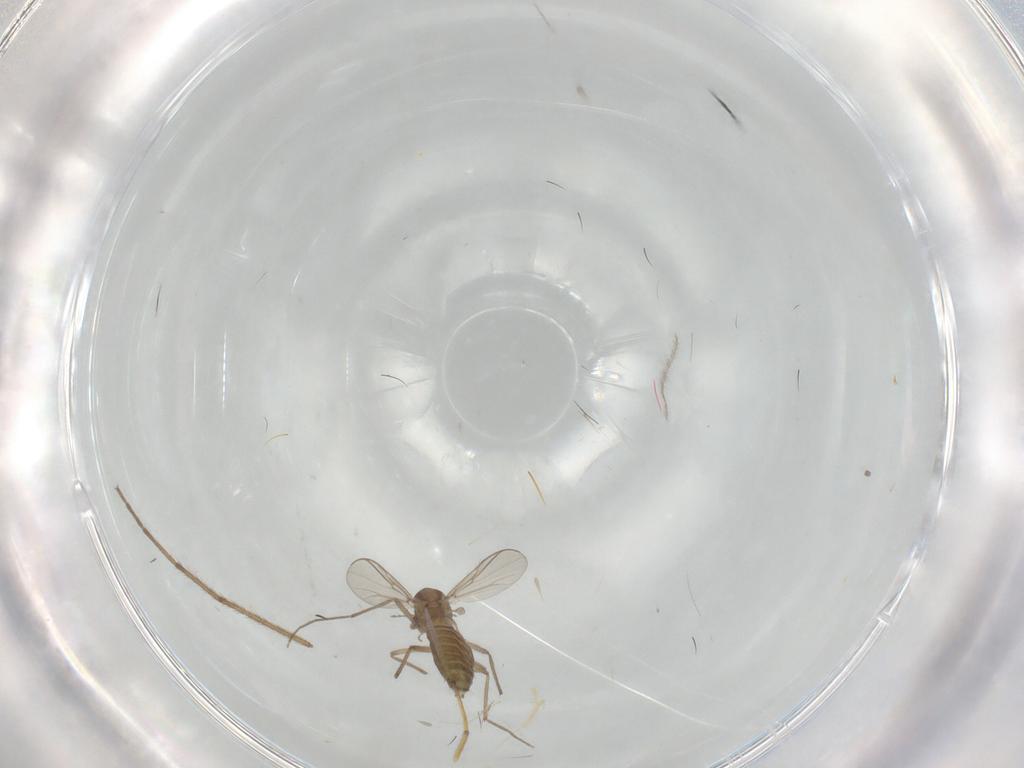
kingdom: Animalia
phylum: Arthropoda
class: Insecta
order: Diptera
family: Chironomidae
